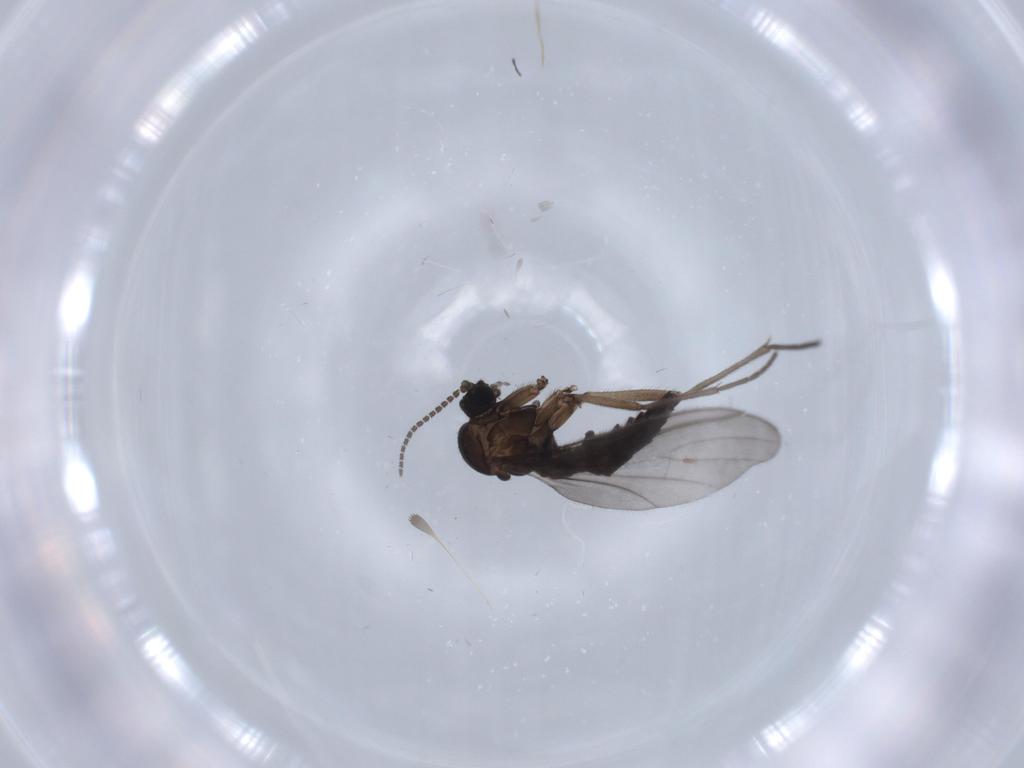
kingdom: Animalia
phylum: Arthropoda
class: Insecta
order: Diptera
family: Sciaridae
